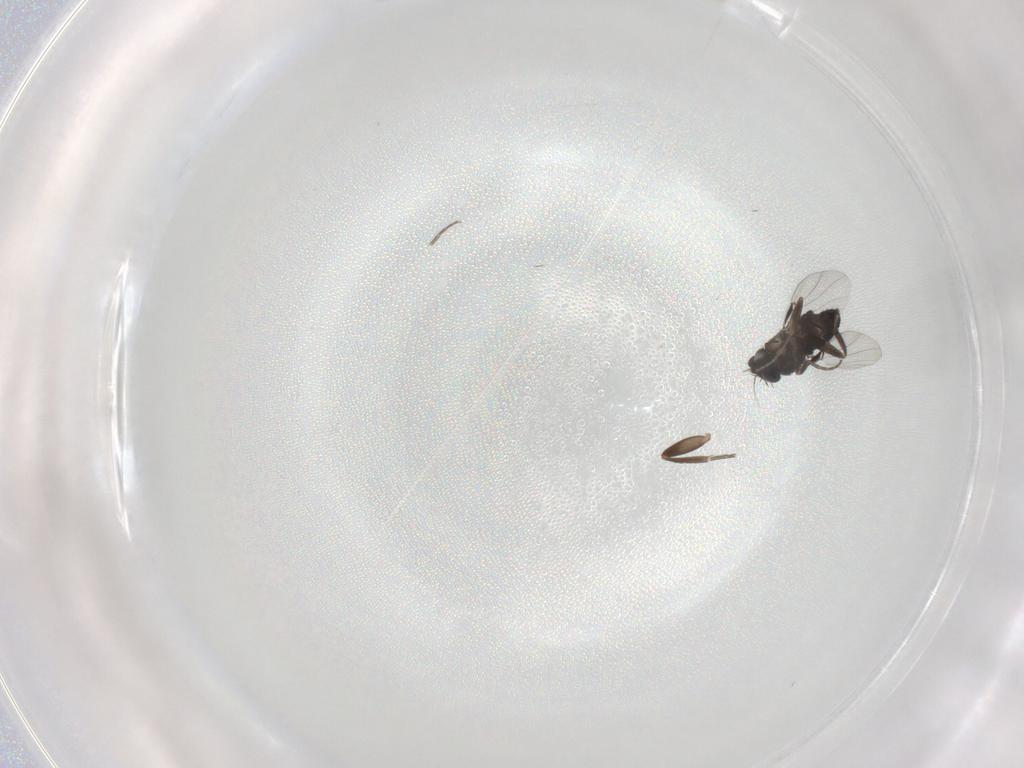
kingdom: Animalia
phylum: Arthropoda
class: Insecta
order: Diptera
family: Phoridae
